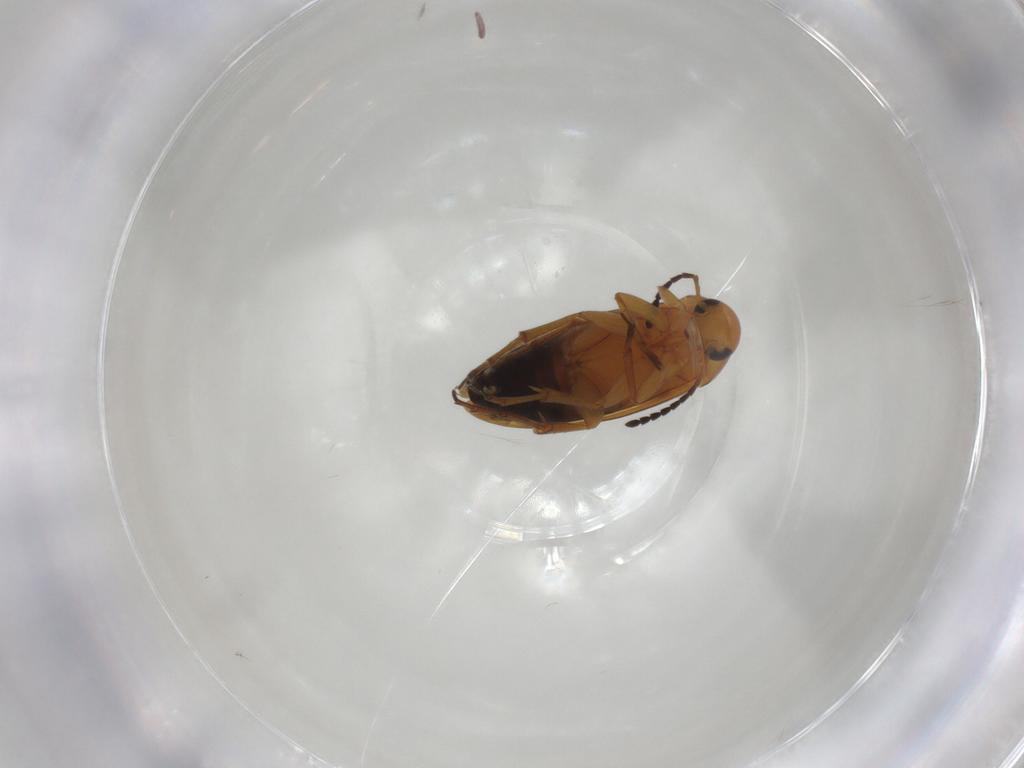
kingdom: Animalia
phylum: Arthropoda
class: Insecta
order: Coleoptera
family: Scraptiidae
